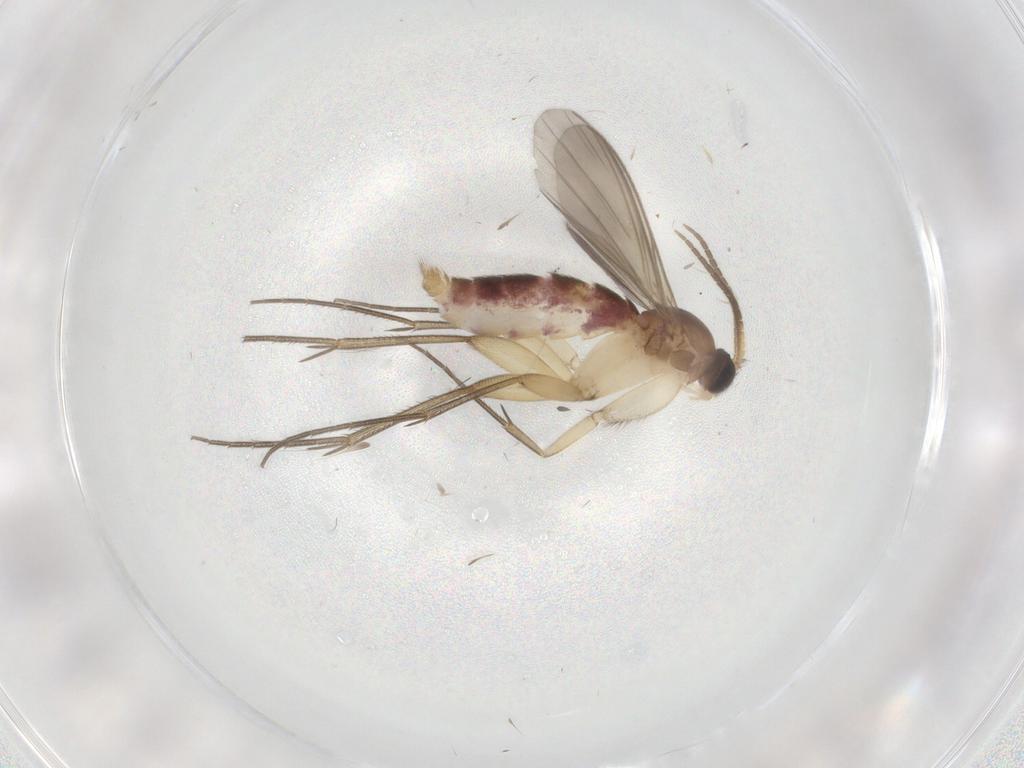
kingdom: Animalia
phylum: Arthropoda
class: Insecta
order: Diptera
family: Mycetophilidae
